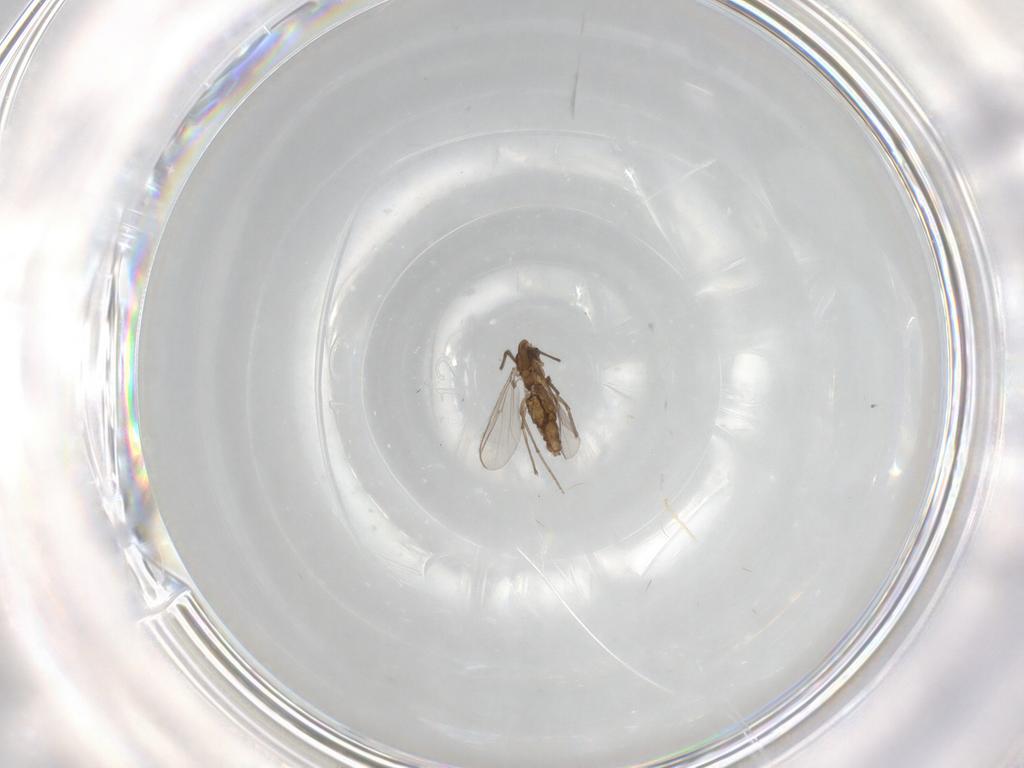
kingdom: Animalia
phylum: Arthropoda
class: Insecta
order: Diptera
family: Chironomidae
